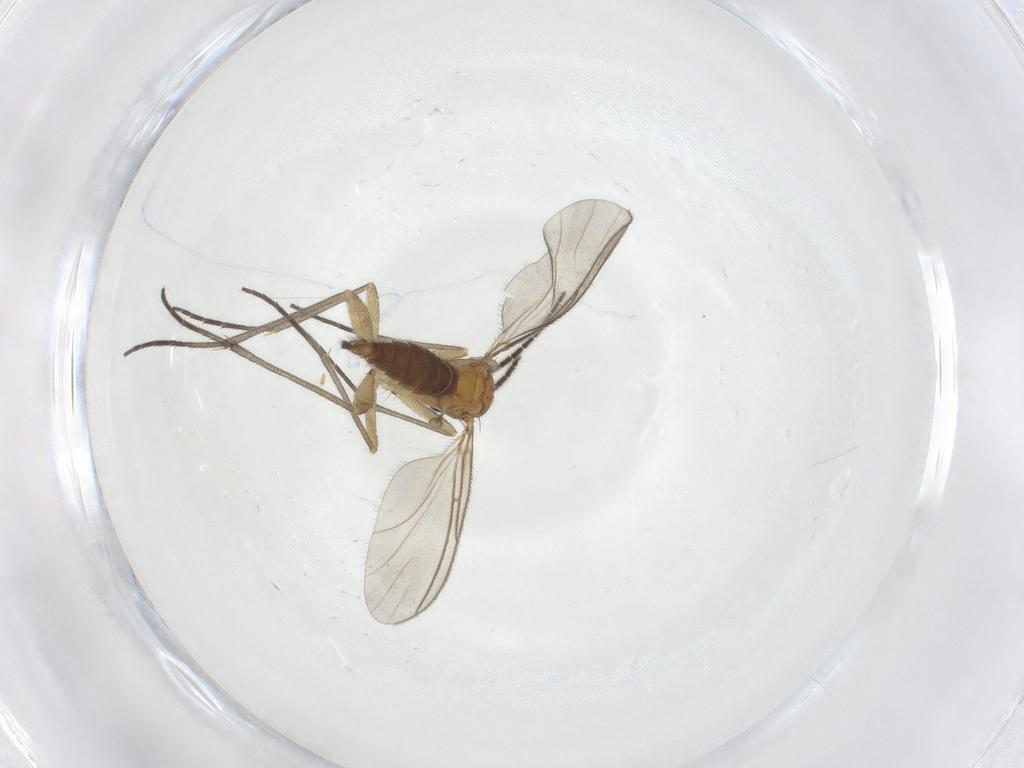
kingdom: Animalia
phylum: Arthropoda
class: Insecta
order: Diptera
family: Sciaridae
